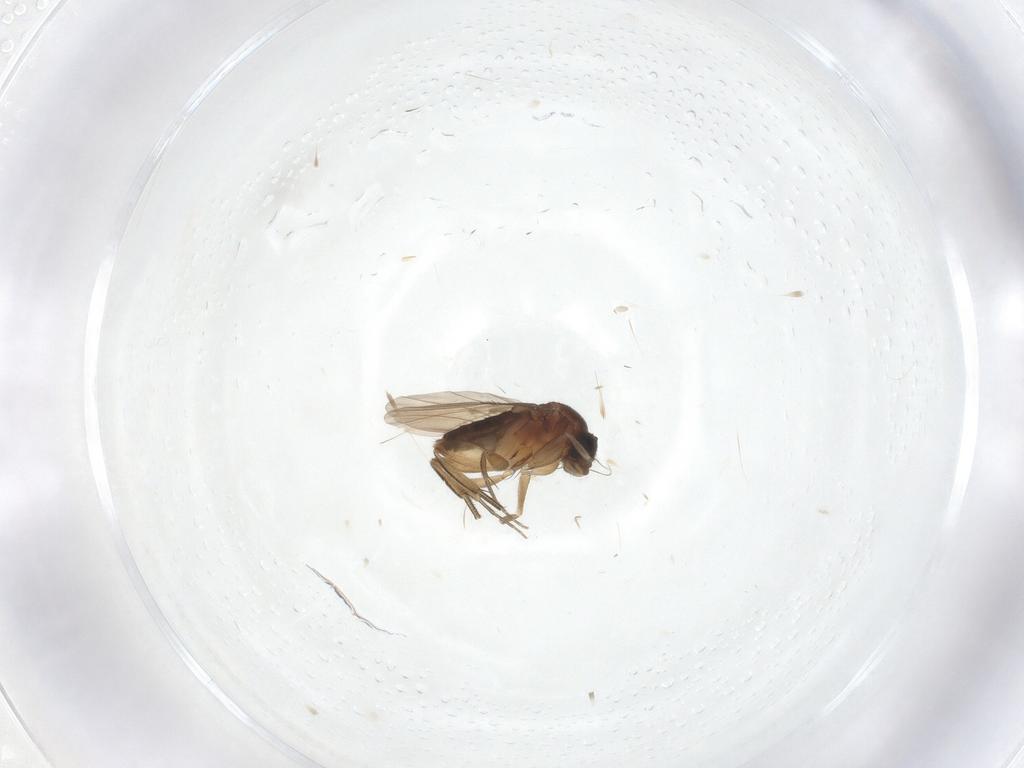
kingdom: Animalia
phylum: Arthropoda
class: Insecta
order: Diptera
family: Phoridae
